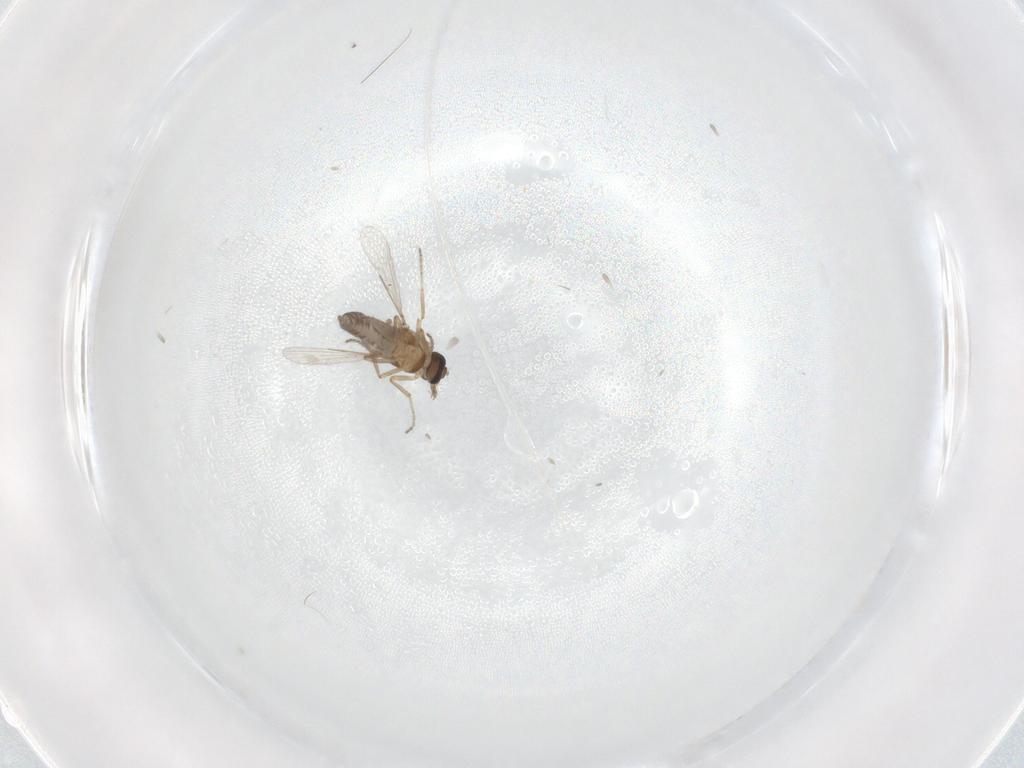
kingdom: Animalia
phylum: Arthropoda
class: Insecta
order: Diptera
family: Ceratopogonidae
